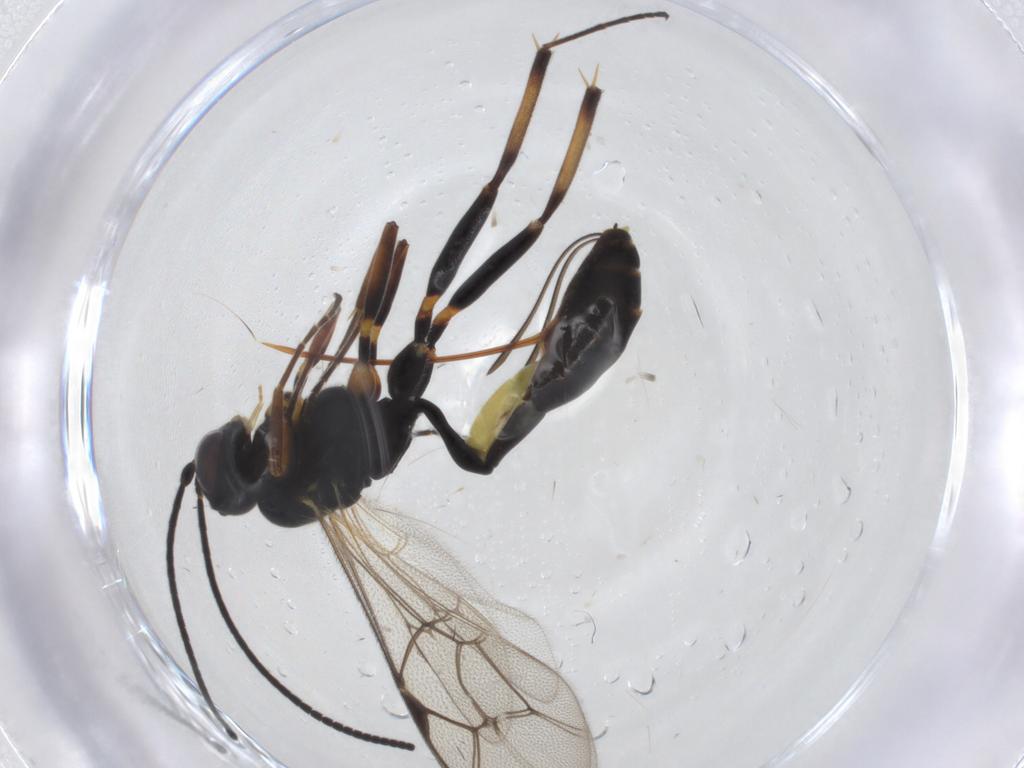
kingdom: Animalia
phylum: Arthropoda
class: Insecta
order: Hymenoptera
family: Ichneumonidae
